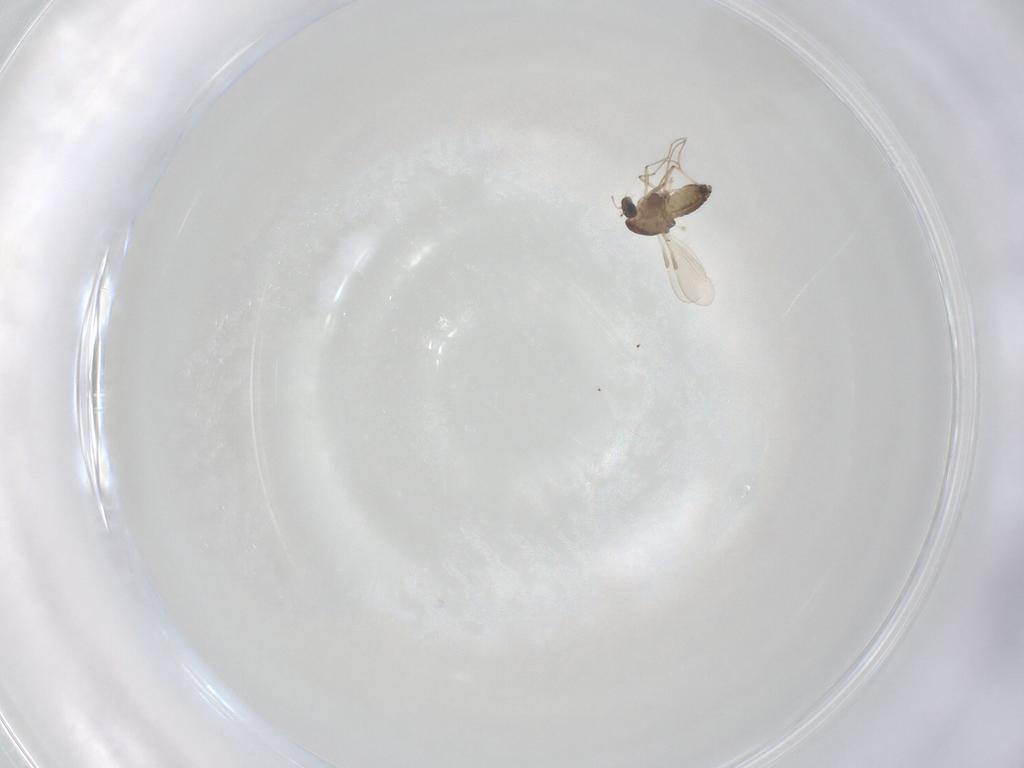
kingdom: Animalia
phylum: Arthropoda
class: Insecta
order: Diptera
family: Chironomidae
